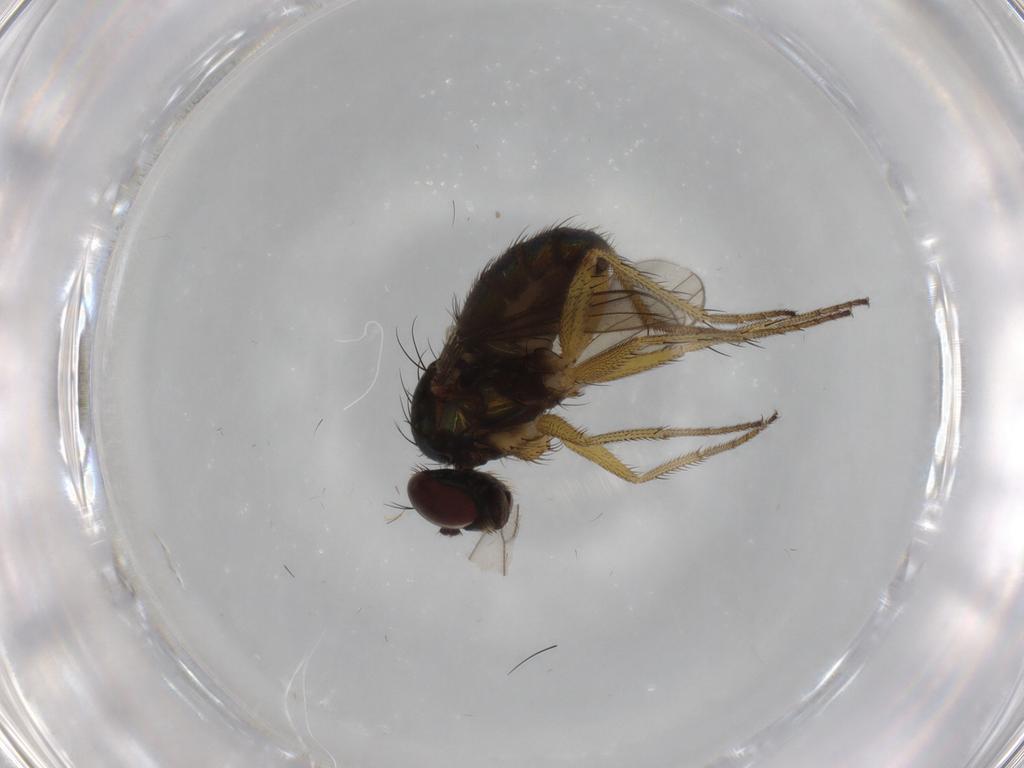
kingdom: Animalia
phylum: Arthropoda
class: Insecta
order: Diptera
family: Dolichopodidae
